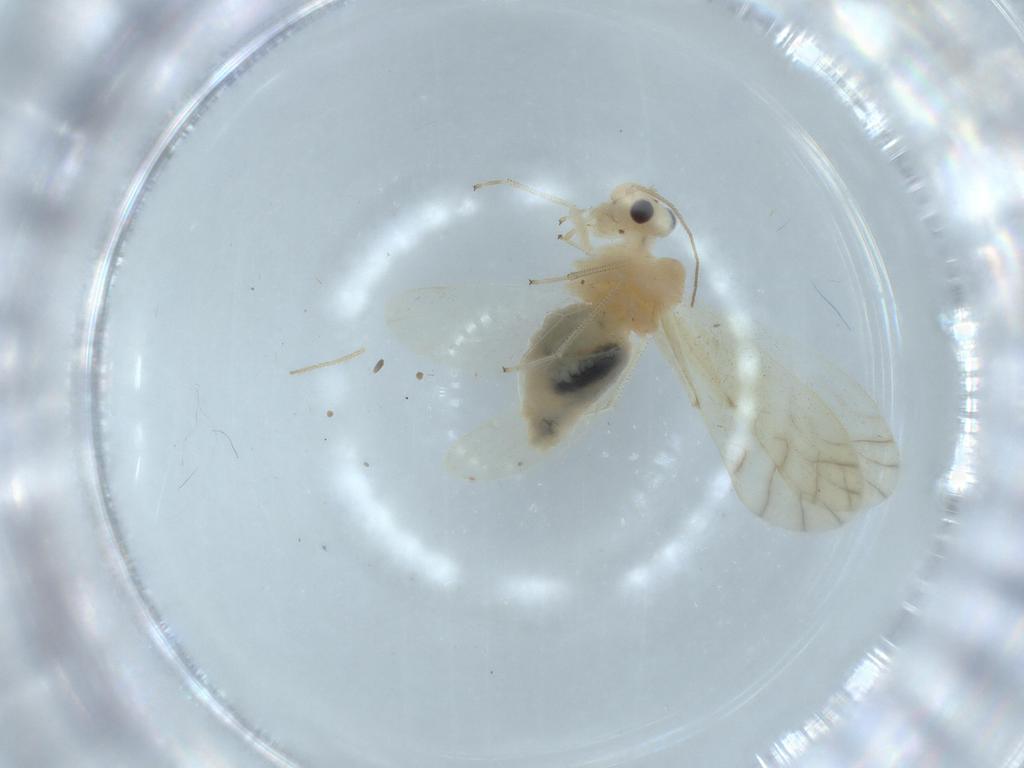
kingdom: Animalia
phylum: Arthropoda
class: Insecta
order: Psocodea
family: Caeciliusidae
